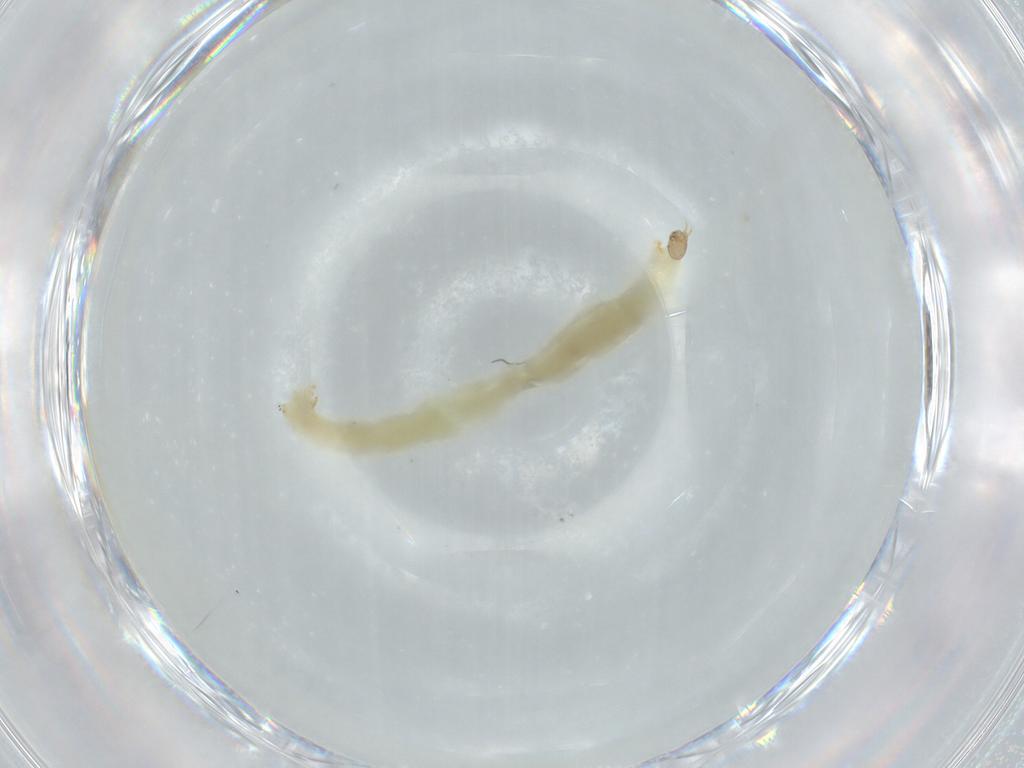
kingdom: Animalia
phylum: Arthropoda
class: Insecta
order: Diptera
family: Chironomidae
